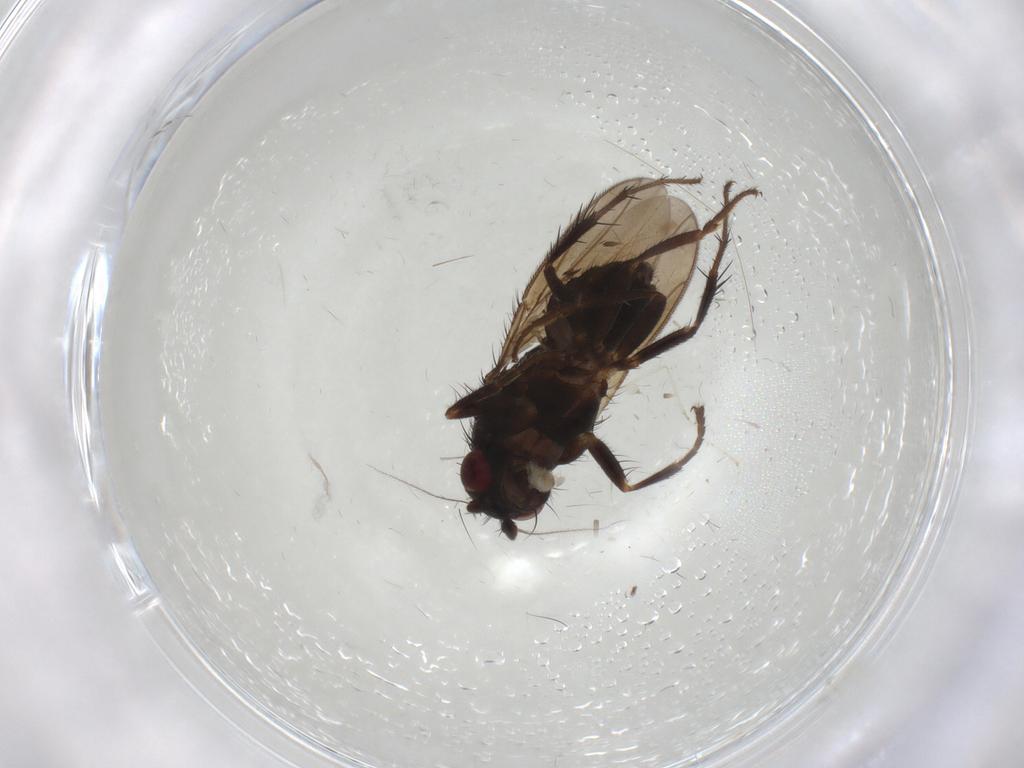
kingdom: Animalia
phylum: Arthropoda
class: Insecta
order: Diptera
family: Sphaeroceridae
